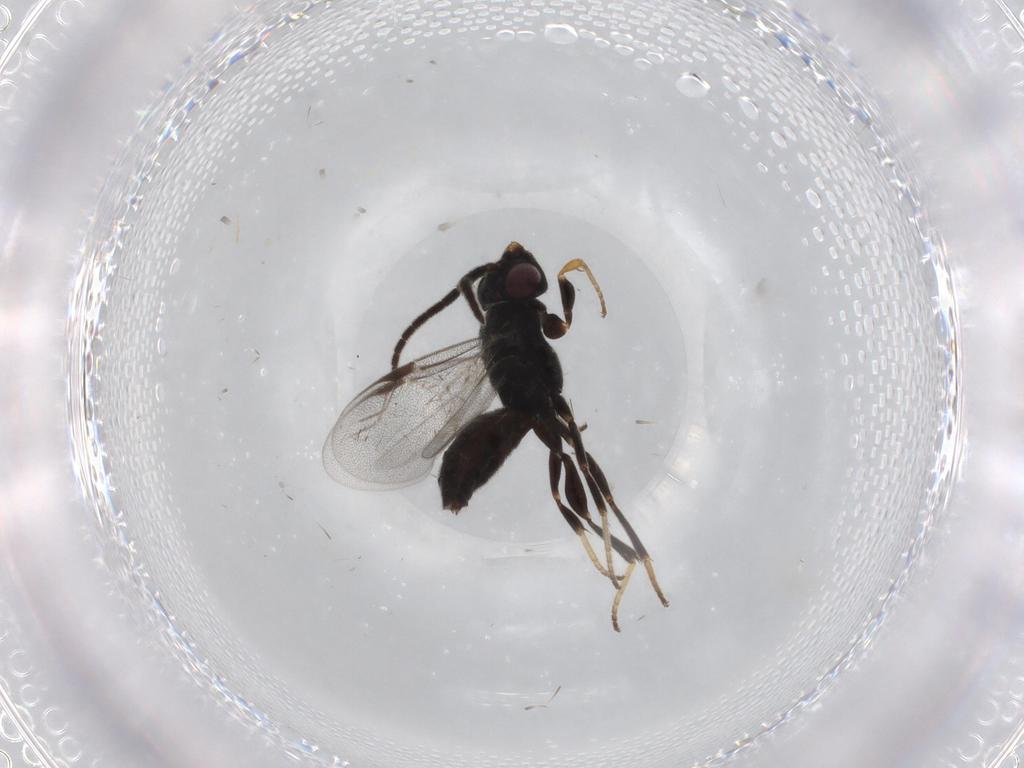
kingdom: Animalia
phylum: Arthropoda
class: Insecta
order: Hymenoptera
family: Dryinidae
